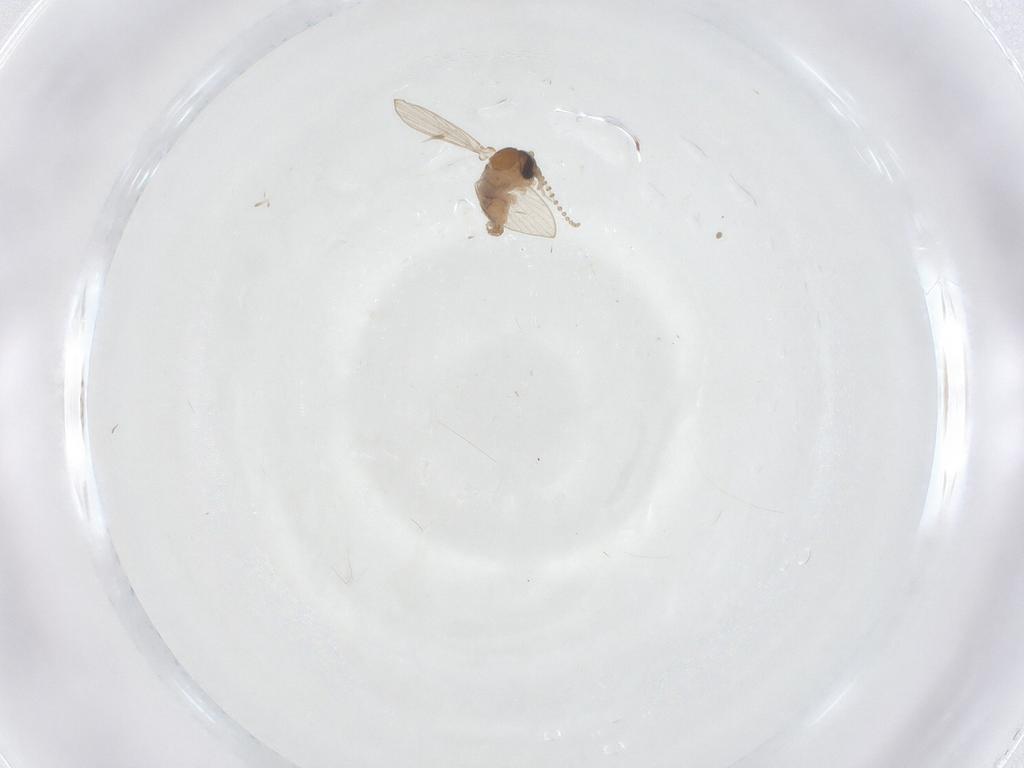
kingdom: Animalia
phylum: Arthropoda
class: Insecta
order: Diptera
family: Psychodidae
